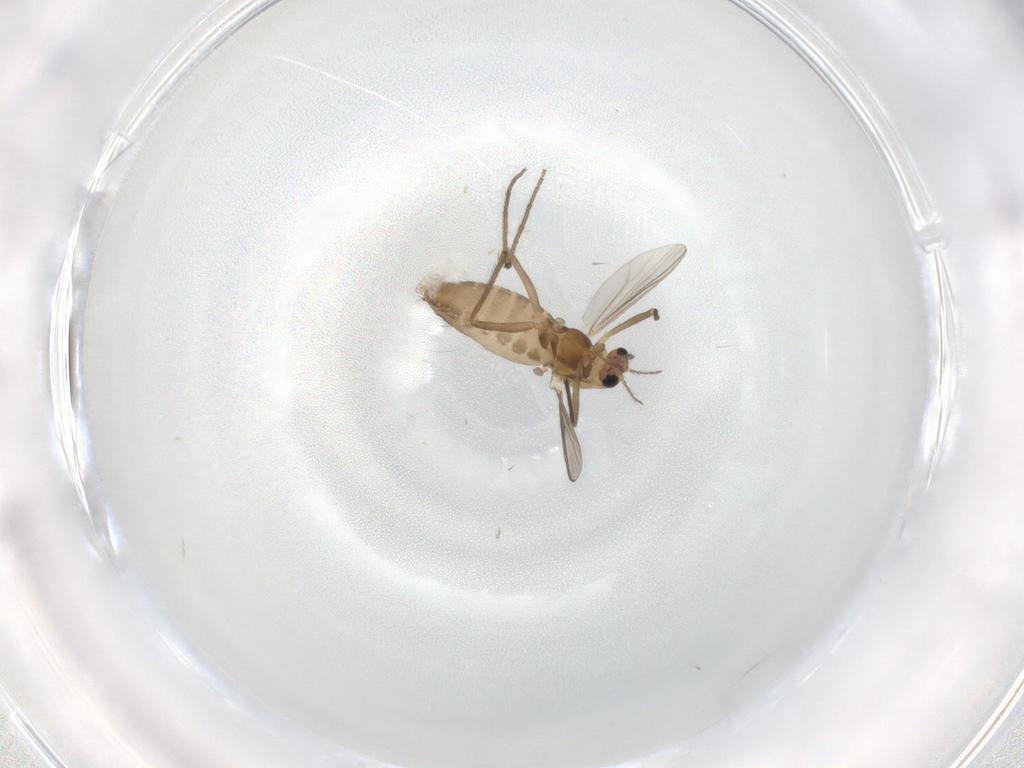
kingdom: Animalia
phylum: Arthropoda
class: Insecta
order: Diptera
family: Chironomidae
